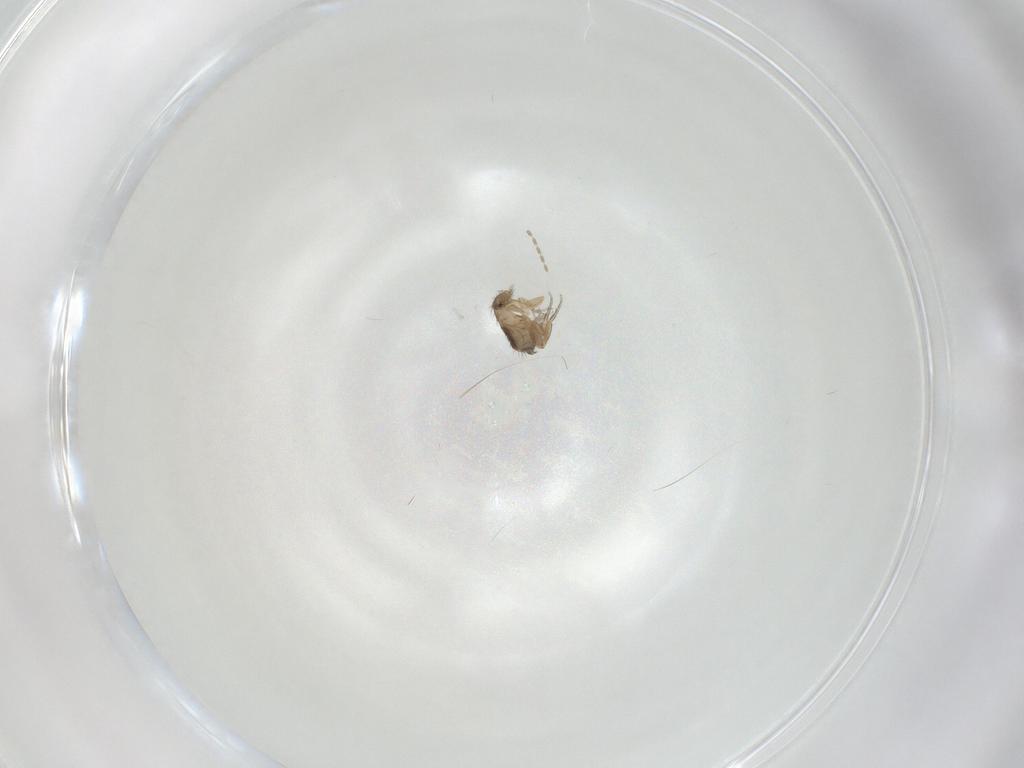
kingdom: Animalia
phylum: Arthropoda
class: Insecta
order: Diptera
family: Phoridae
